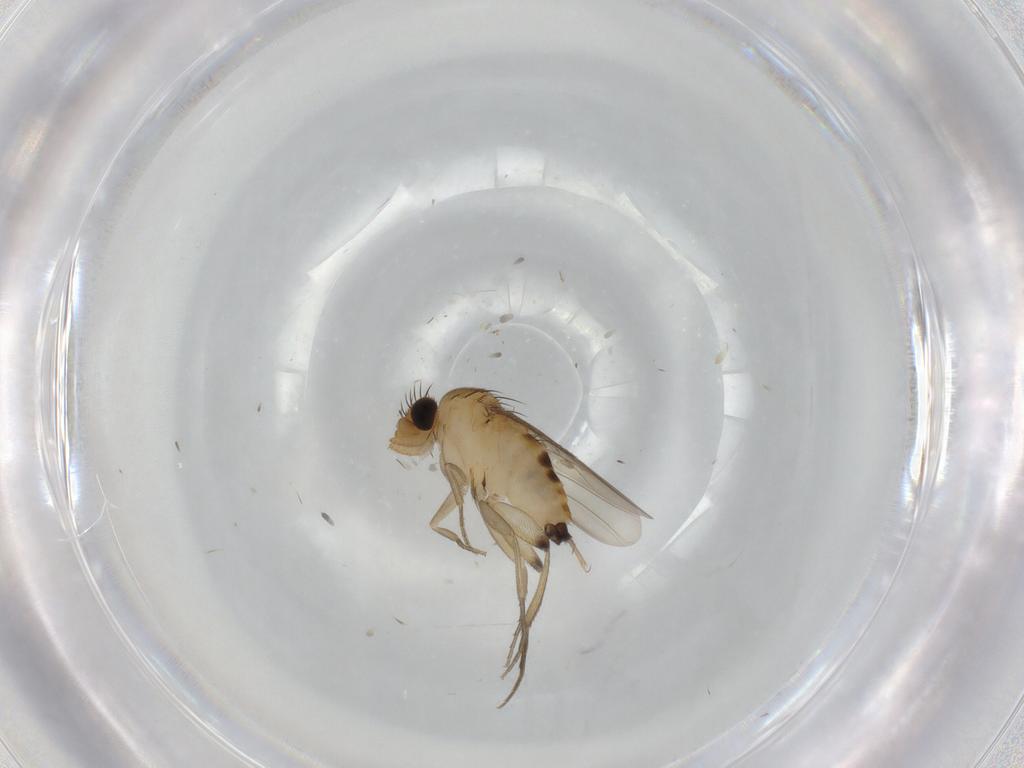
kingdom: Animalia
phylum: Arthropoda
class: Insecta
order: Diptera
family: Phoridae
